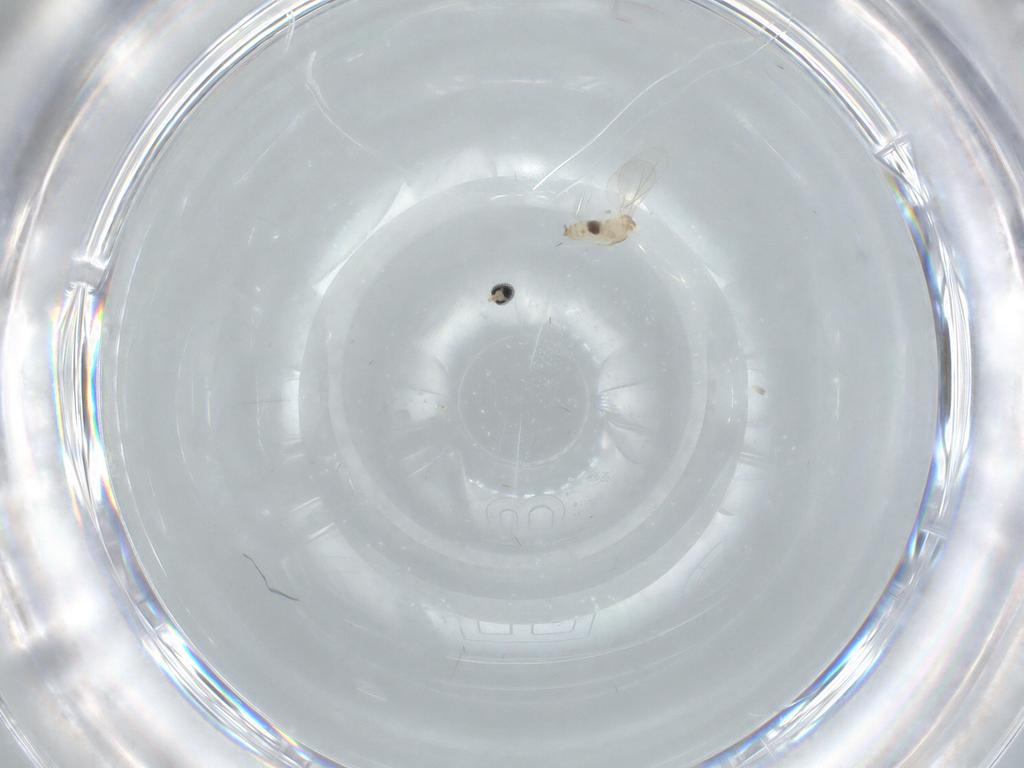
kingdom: Animalia
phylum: Arthropoda
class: Insecta
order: Diptera
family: Cecidomyiidae
